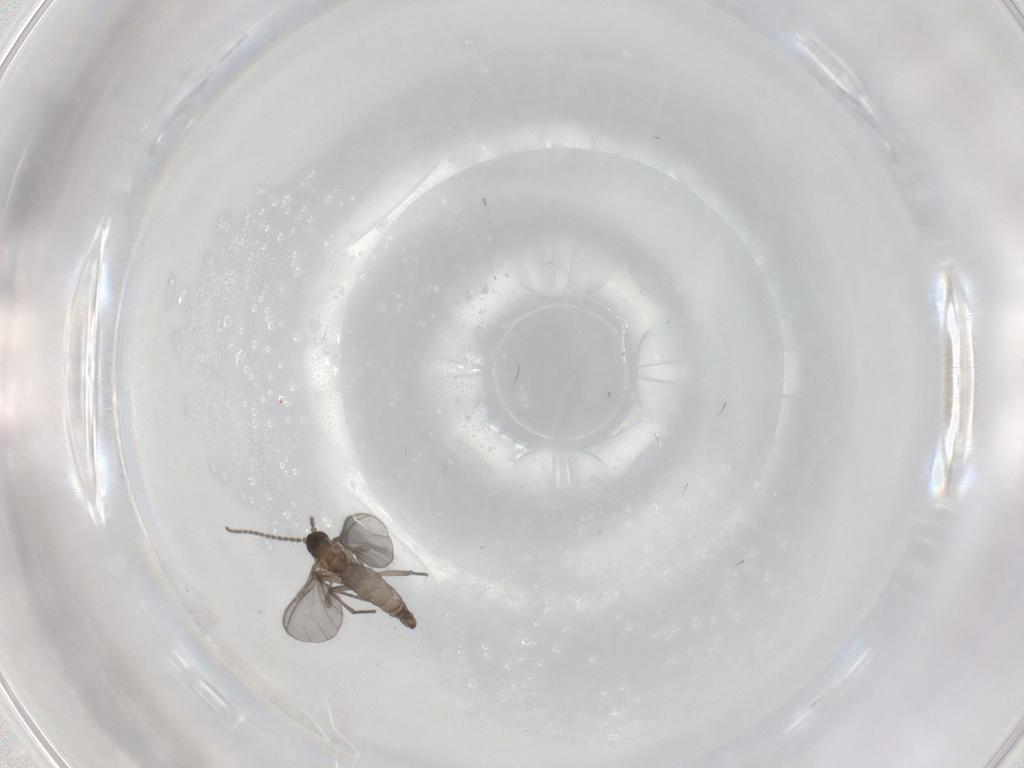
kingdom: Animalia
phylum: Arthropoda
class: Insecta
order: Diptera
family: Sciaridae
